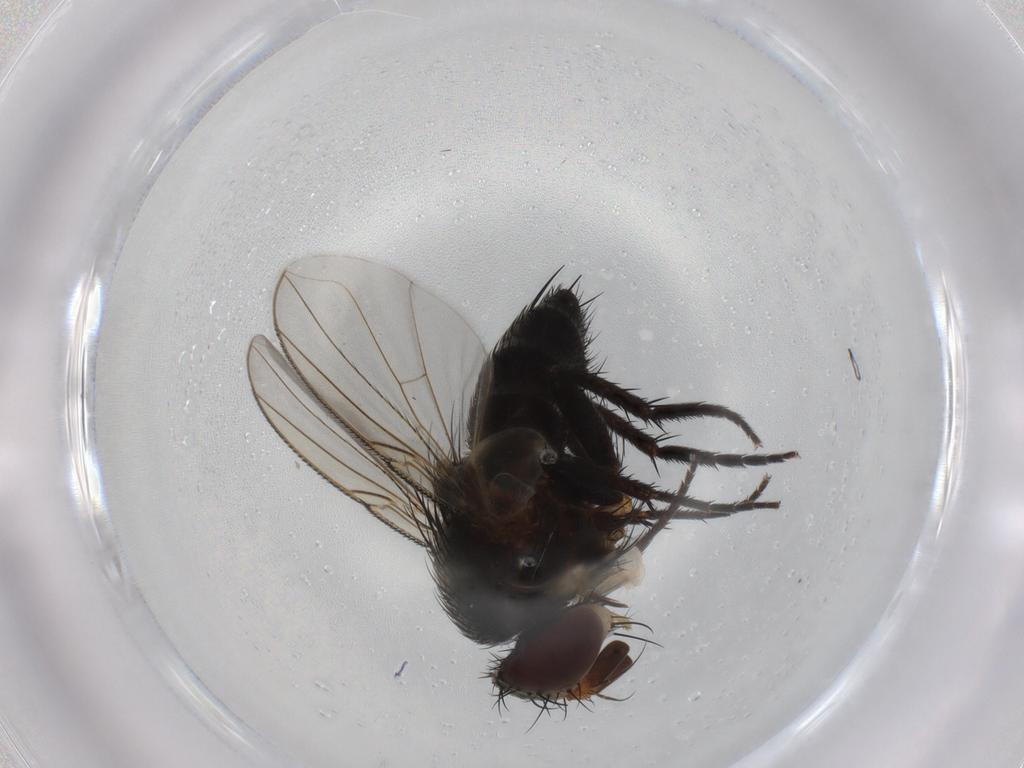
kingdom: Animalia
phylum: Arthropoda
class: Insecta
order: Diptera
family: Tachinidae
